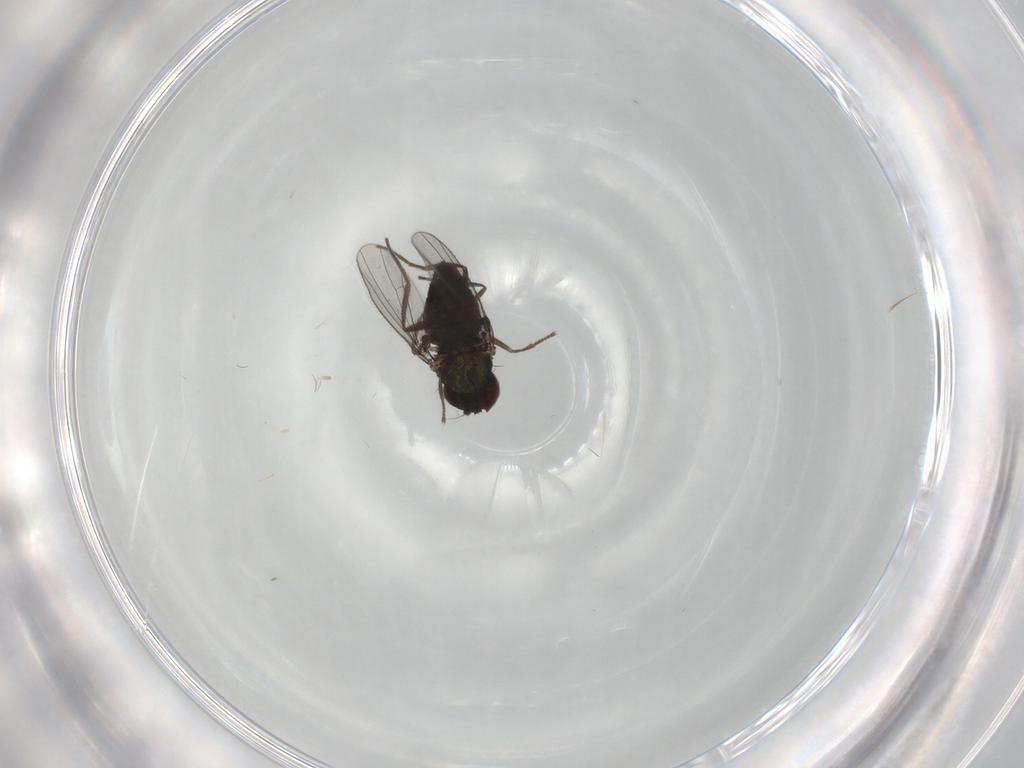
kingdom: Animalia
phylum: Arthropoda
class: Insecta
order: Diptera
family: Dolichopodidae
